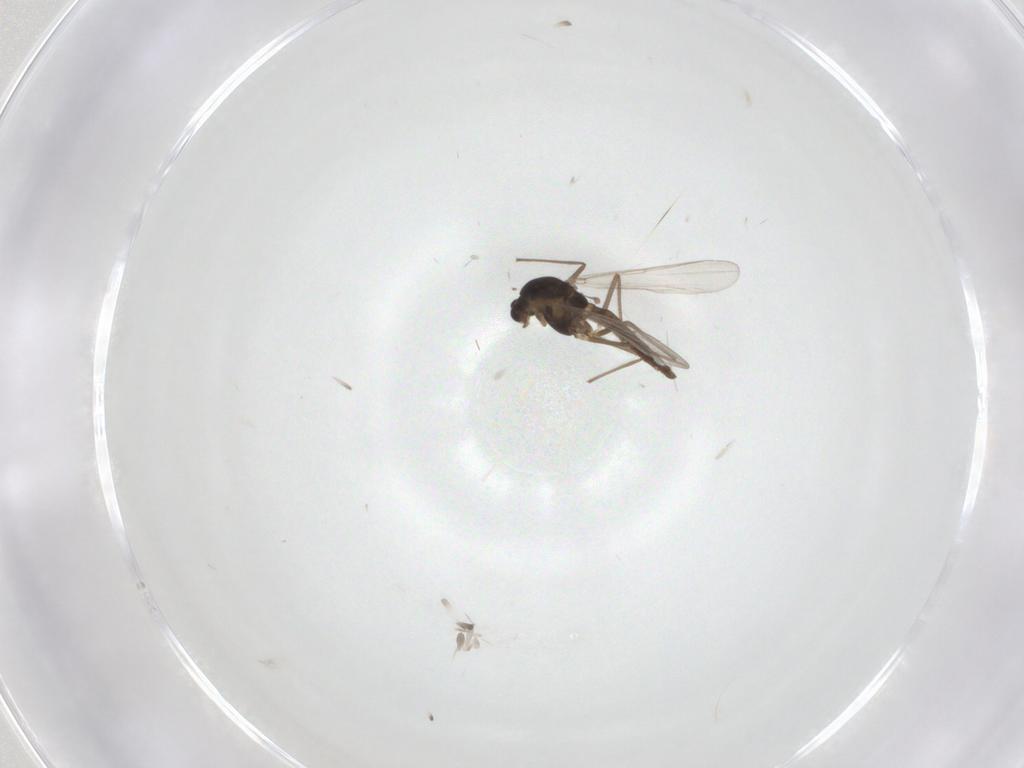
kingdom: Animalia
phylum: Arthropoda
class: Insecta
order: Diptera
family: Chironomidae
